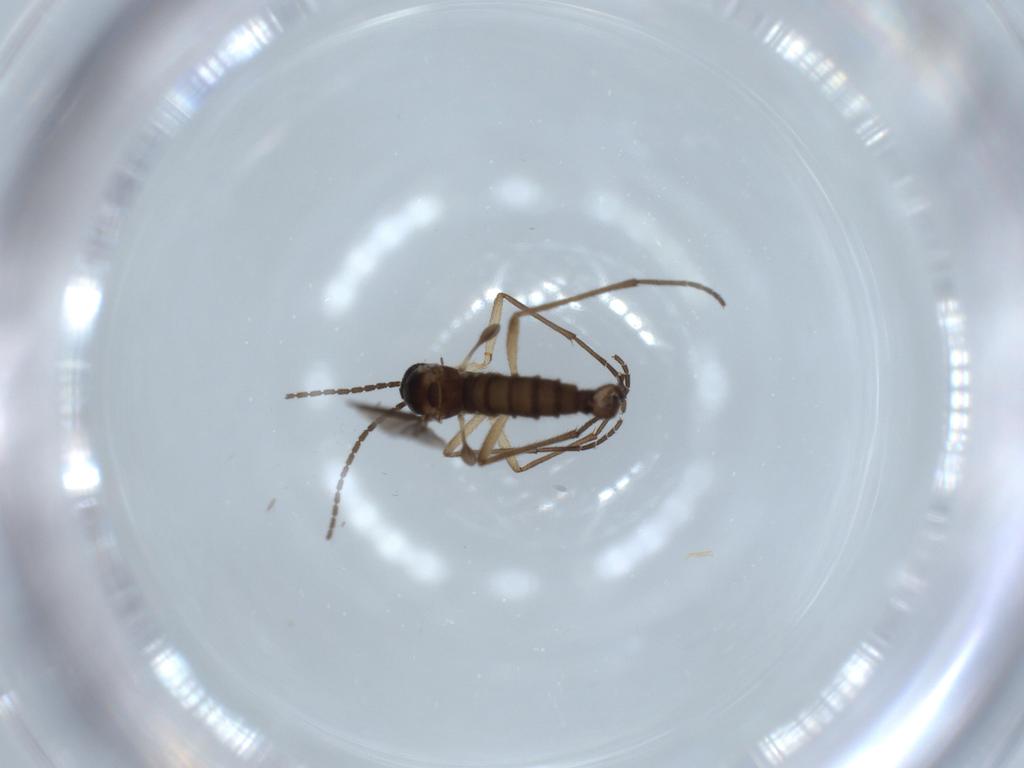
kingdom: Animalia
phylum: Arthropoda
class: Insecta
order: Diptera
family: Sciaridae
